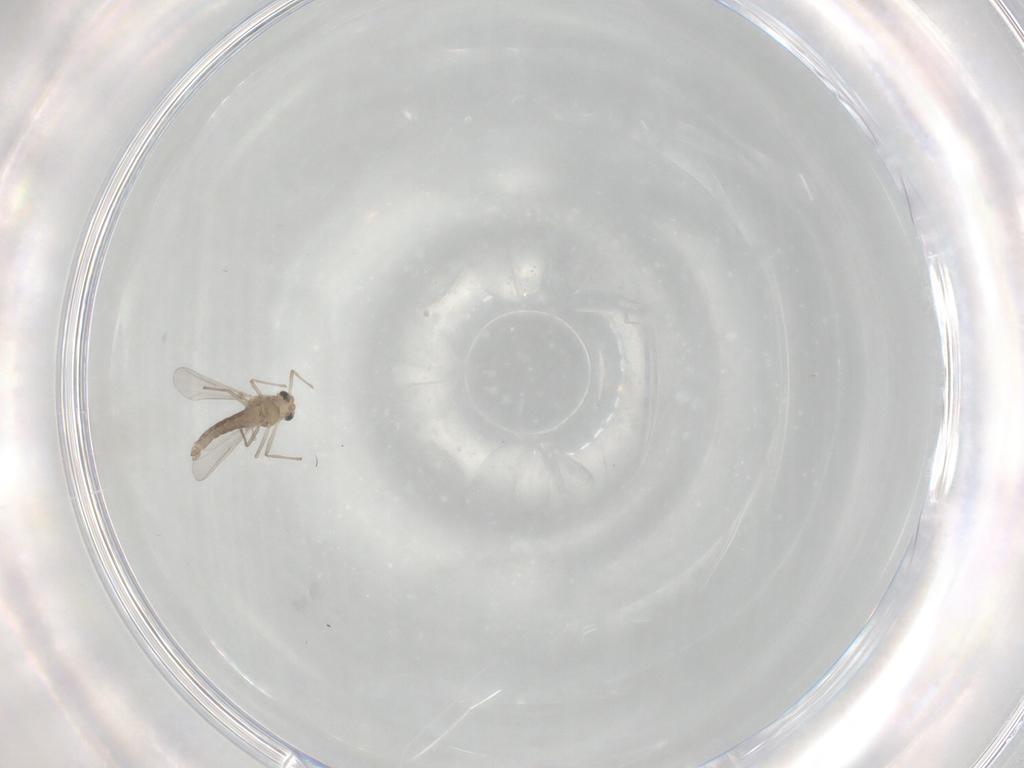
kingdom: Animalia
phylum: Arthropoda
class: Insecta
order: Diptera
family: Chironomidae
